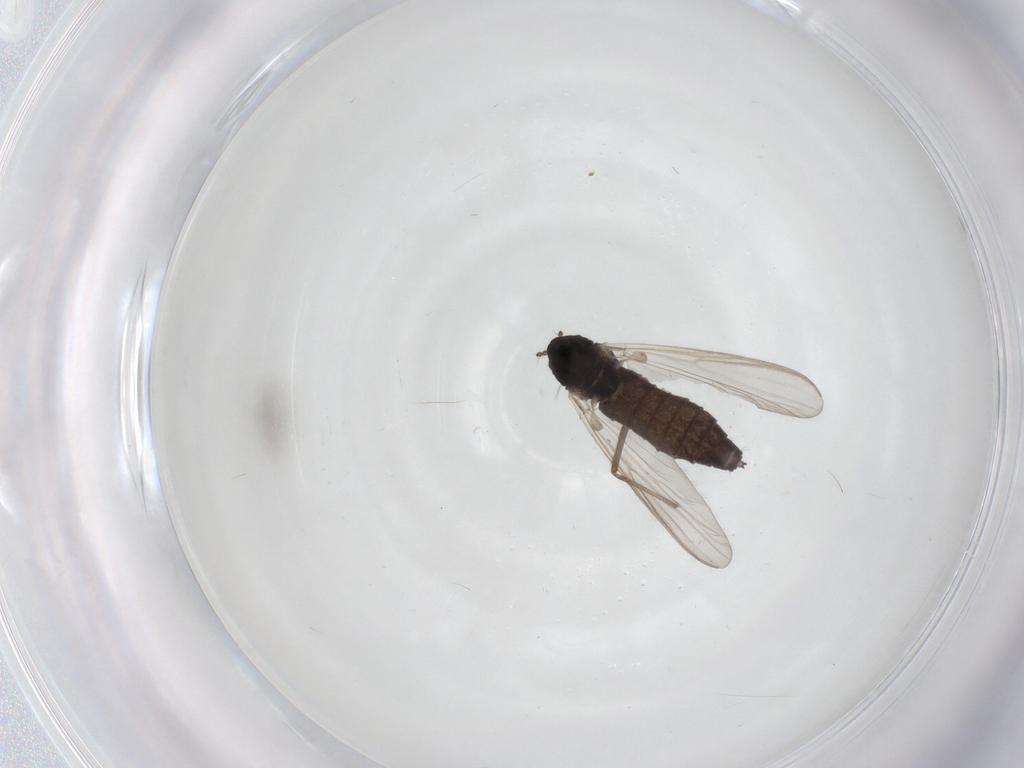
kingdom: Animalia
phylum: Arthropoda
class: Insecta
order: Diptera
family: Chironomidae
